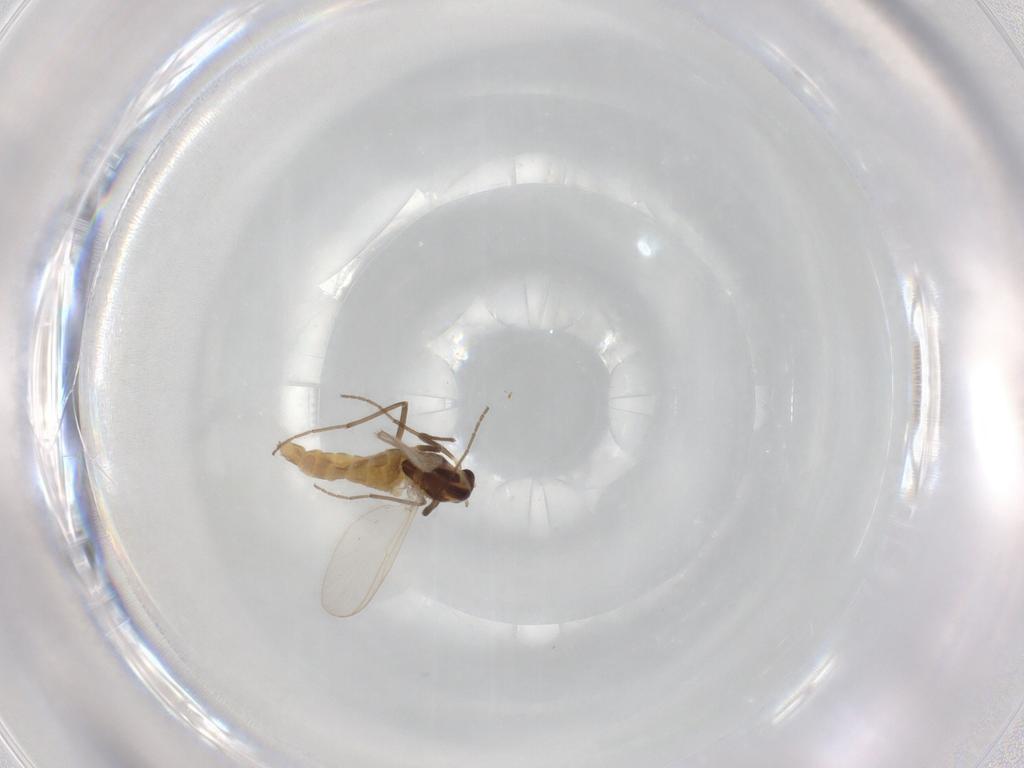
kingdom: Animalia
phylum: Arthropoda
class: Insecta
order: Diptera
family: Chironomidae
